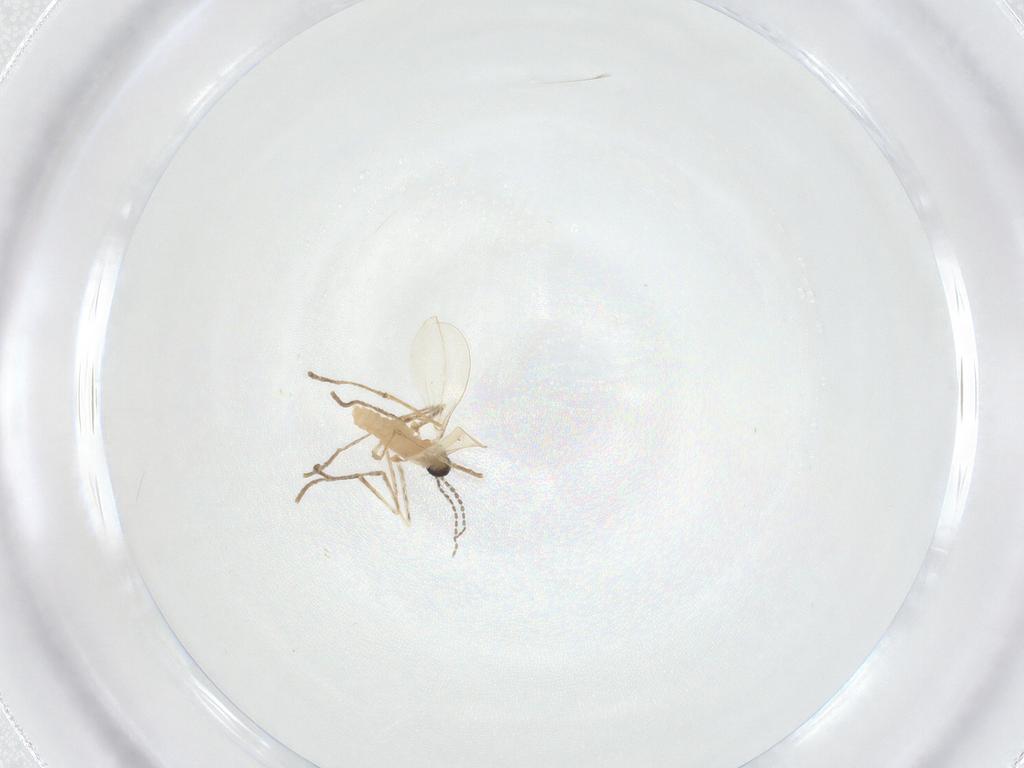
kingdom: Animalia
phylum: Arthropoda
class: Insecta
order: Diptera
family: Cecidomyiidae
